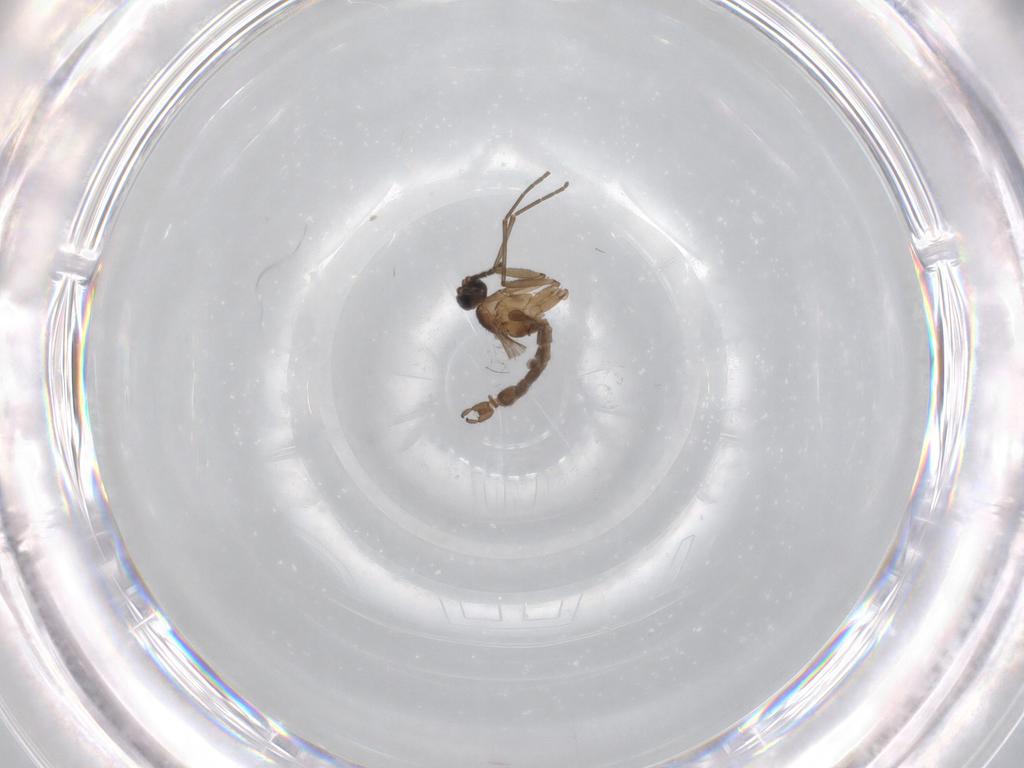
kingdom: Animalia
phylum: Arthropoda
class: Insecta
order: Diptera
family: Sciaridae
